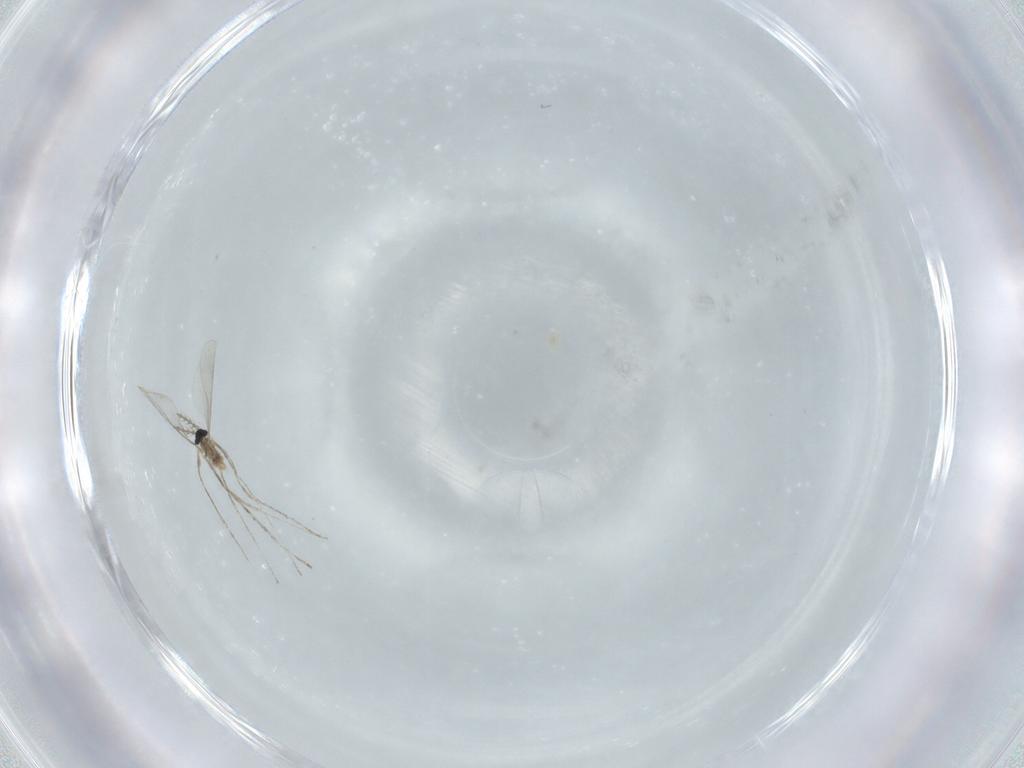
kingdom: Animalia
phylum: Arthropoda
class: Insecta
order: Diptera
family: Cecidomyiidae
